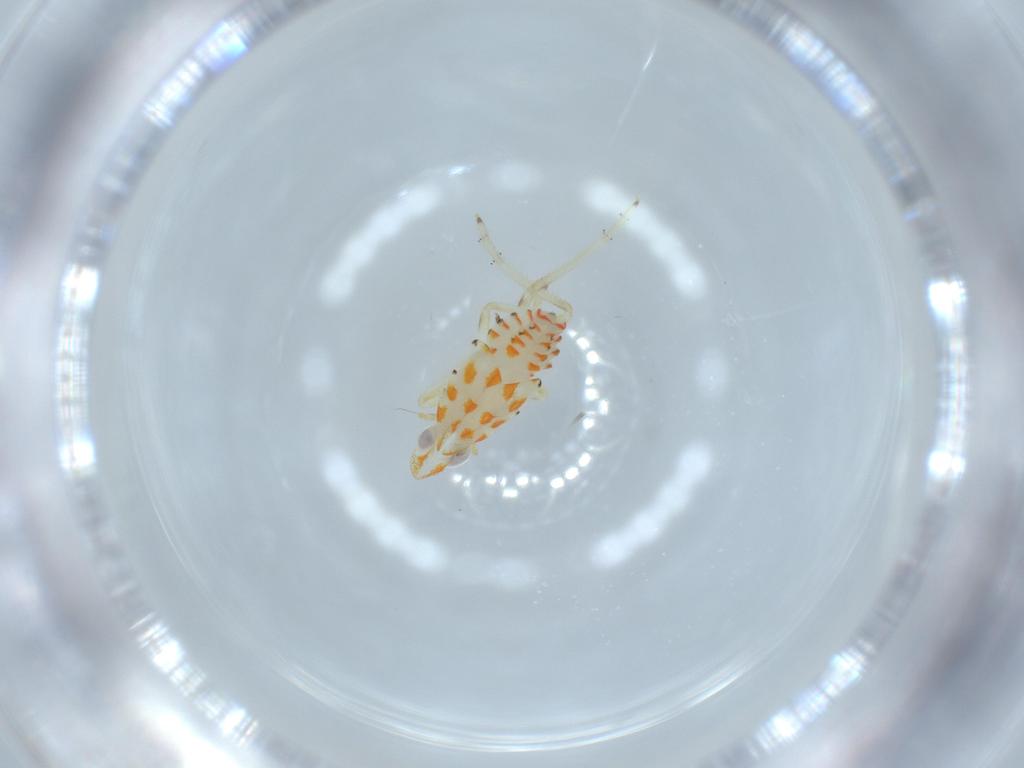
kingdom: Animalia
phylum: Arthropoda
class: Insecta
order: Hemiptera
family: Tropiduchidae
